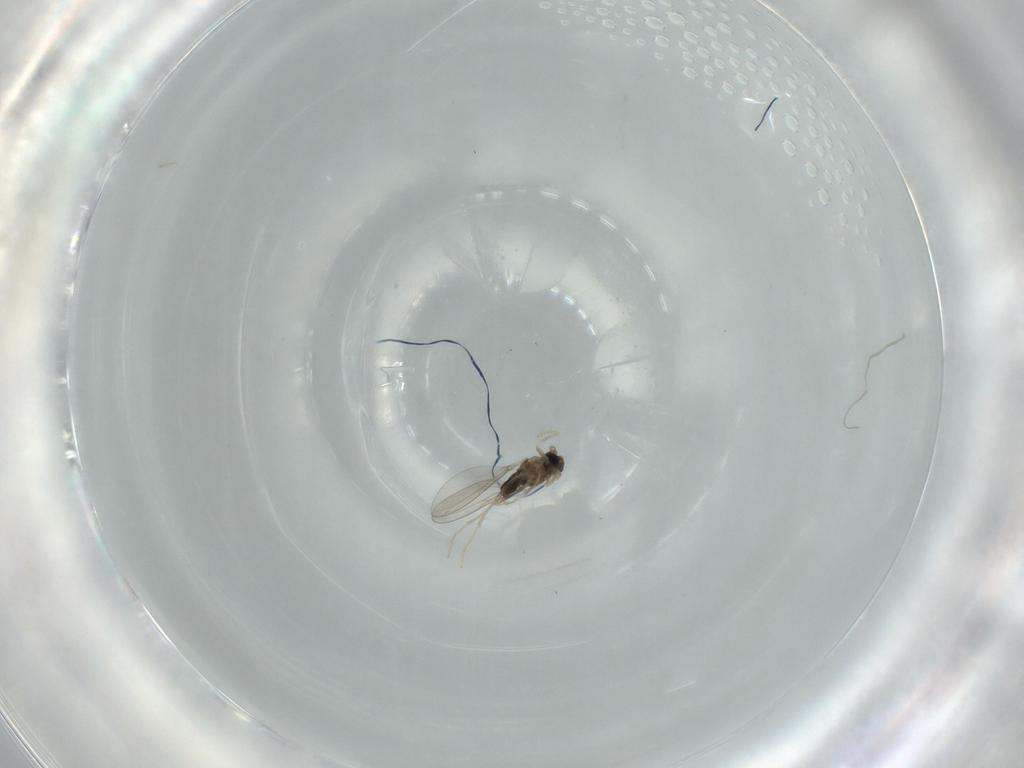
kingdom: Animalia
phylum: Arthropoda
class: Insecta
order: Diptera
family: Cecidomyiidae
